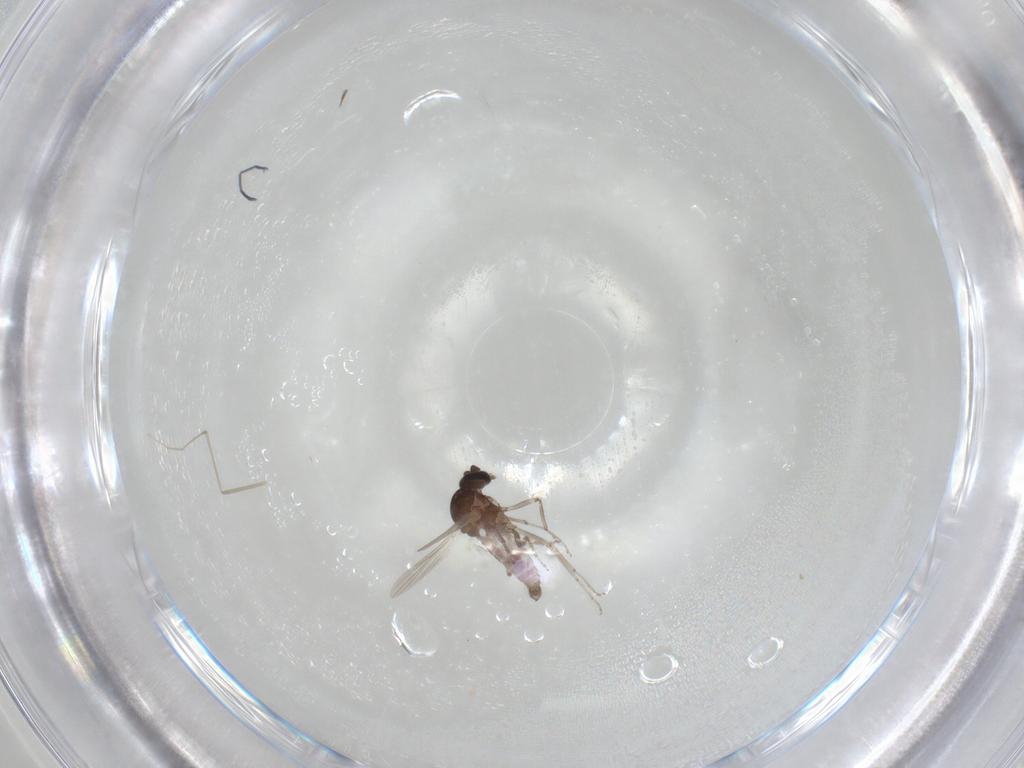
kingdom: Animalia
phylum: Arthropoda
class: Insecta
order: Diptera
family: Ceratopogonidae
